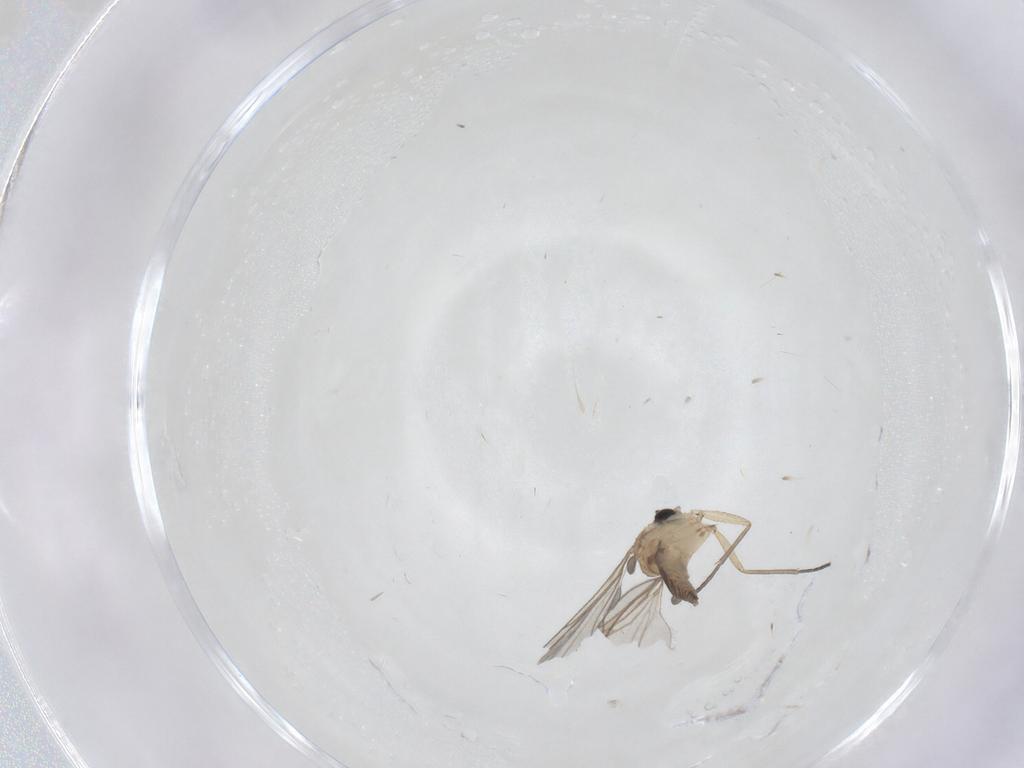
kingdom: Animalia
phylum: Arthropoda
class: Insecta
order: Diptera
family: Sciaridae
